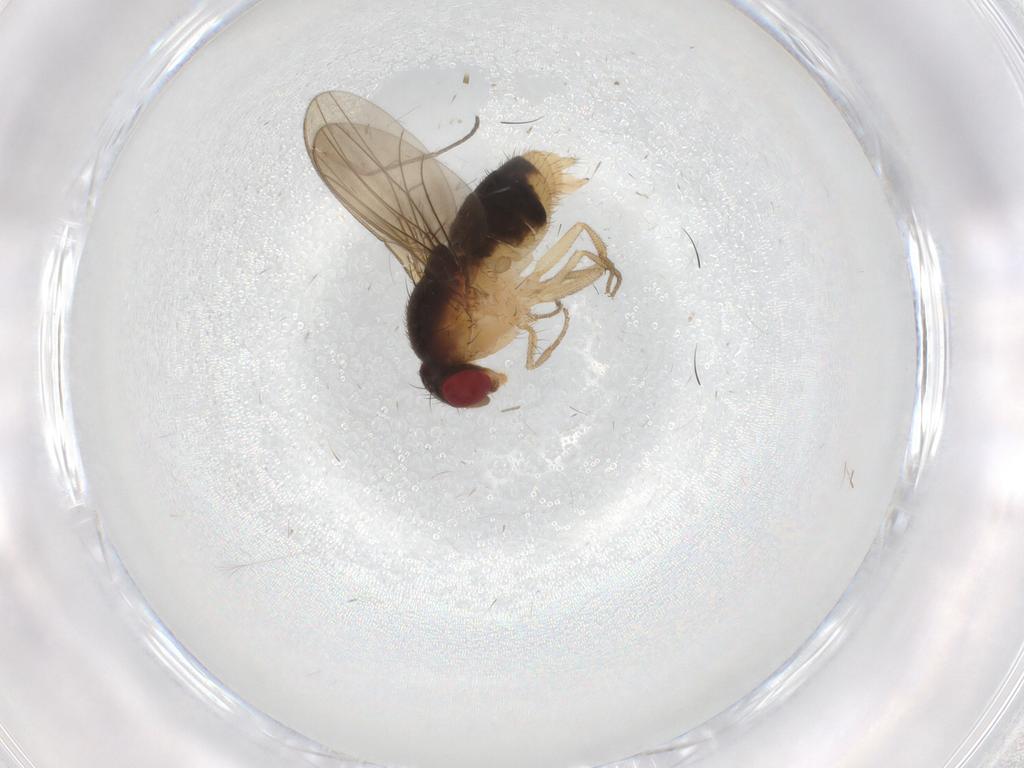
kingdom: Animalia
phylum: Arthropoda
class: Insecta
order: Diptera
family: Drosophilidae
